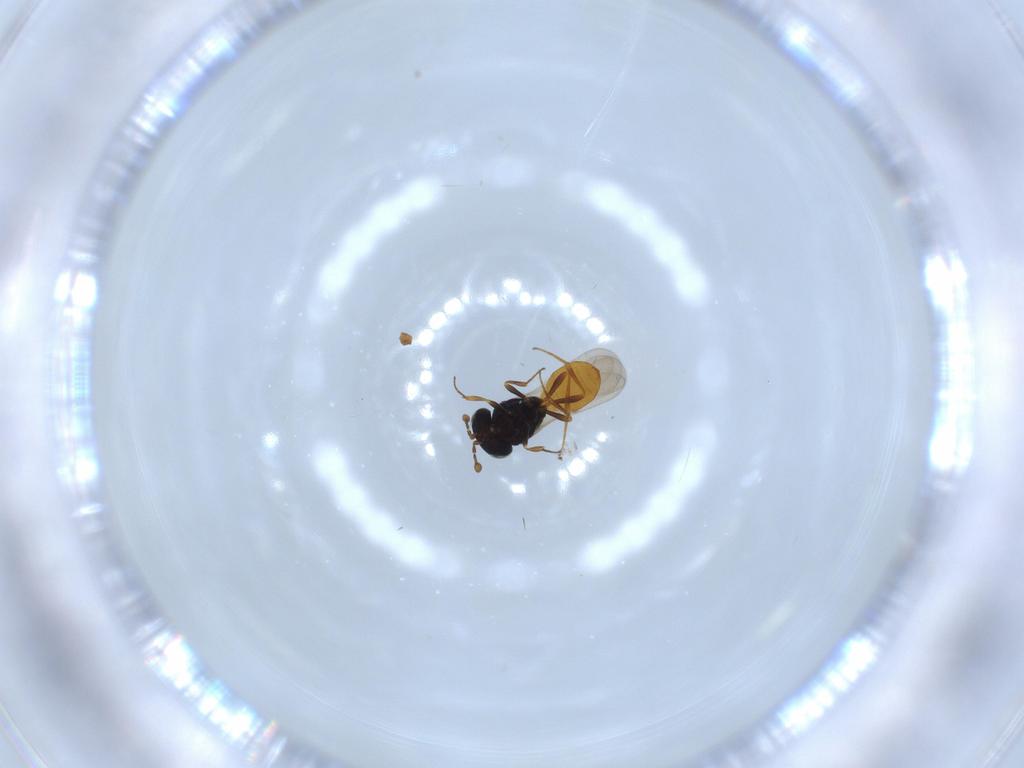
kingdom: Animalia
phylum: Arthropoda
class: Insecta
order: Hymenoptera
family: Scelionidae
